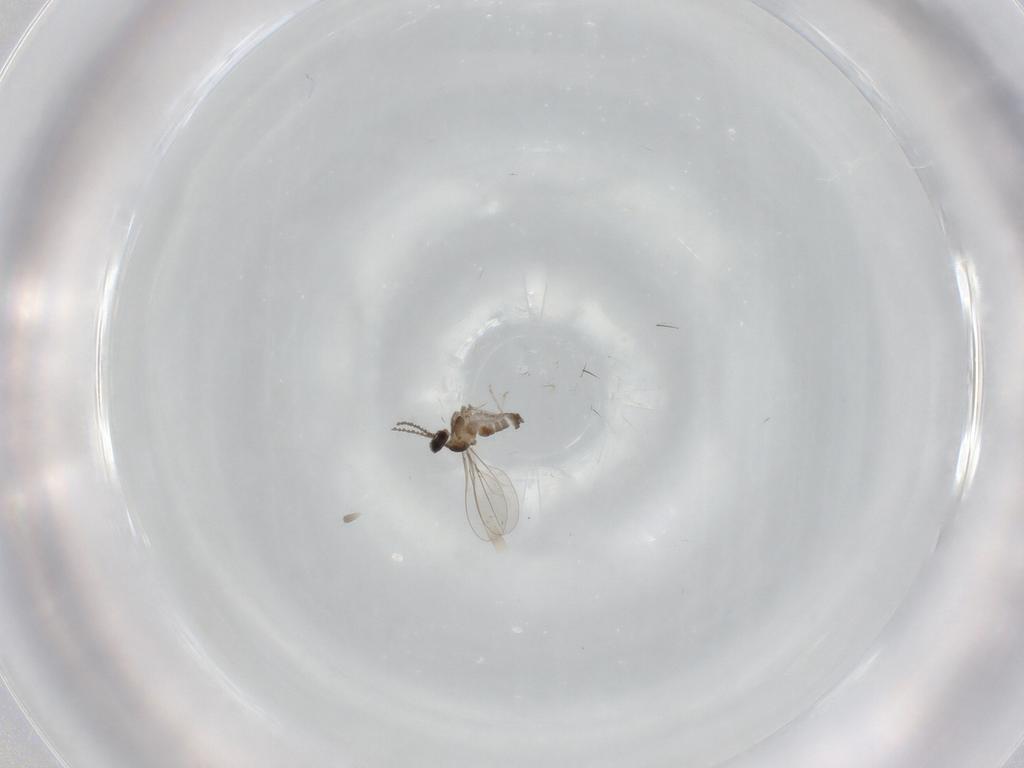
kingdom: Animalia
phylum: Arthropoda
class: Insecta
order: Diptera
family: Cecidomyiidae
